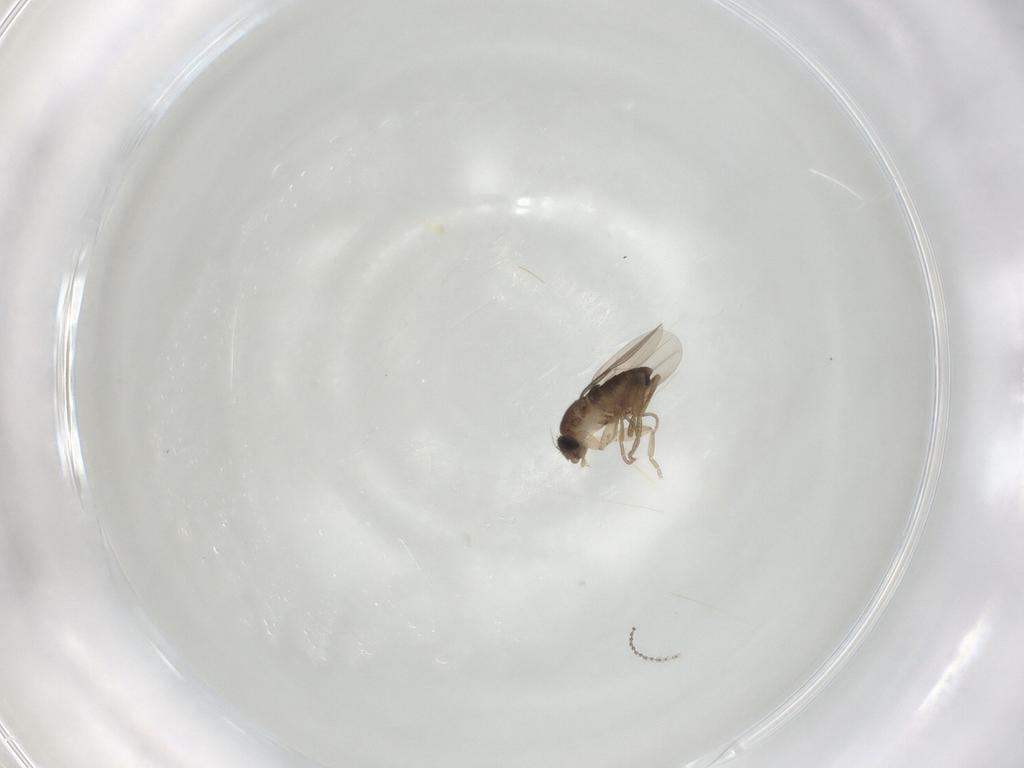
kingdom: Animalia
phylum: Arthropoda
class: Insecta
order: Diptera
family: Phoridae
